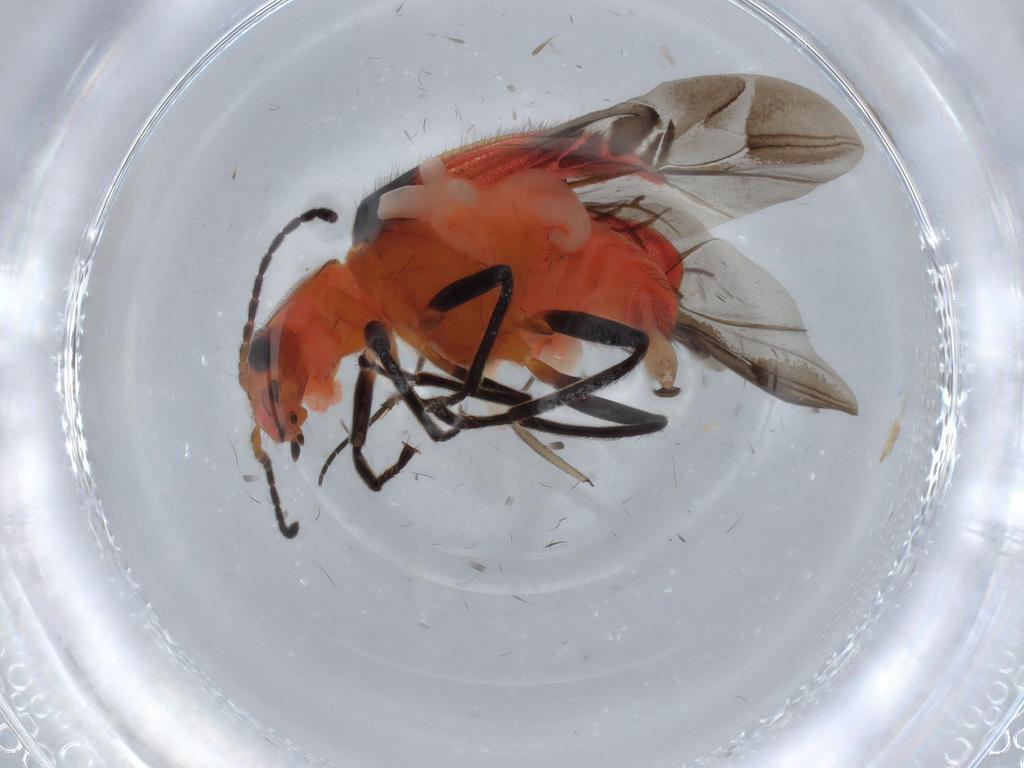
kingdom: Animalia
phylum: Arthropoda
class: Insecta
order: Coleoptera
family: Melyridae
